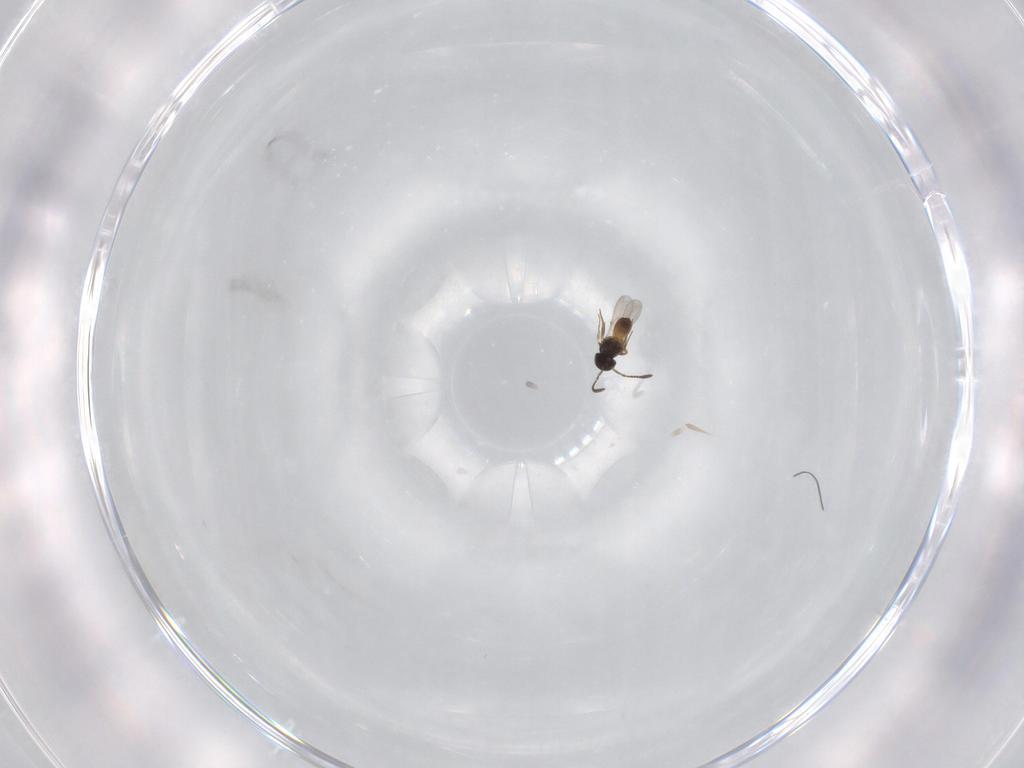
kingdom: Animalia
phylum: Arthropoda
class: Insecta
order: Hymenoptera
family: Scelionidae
